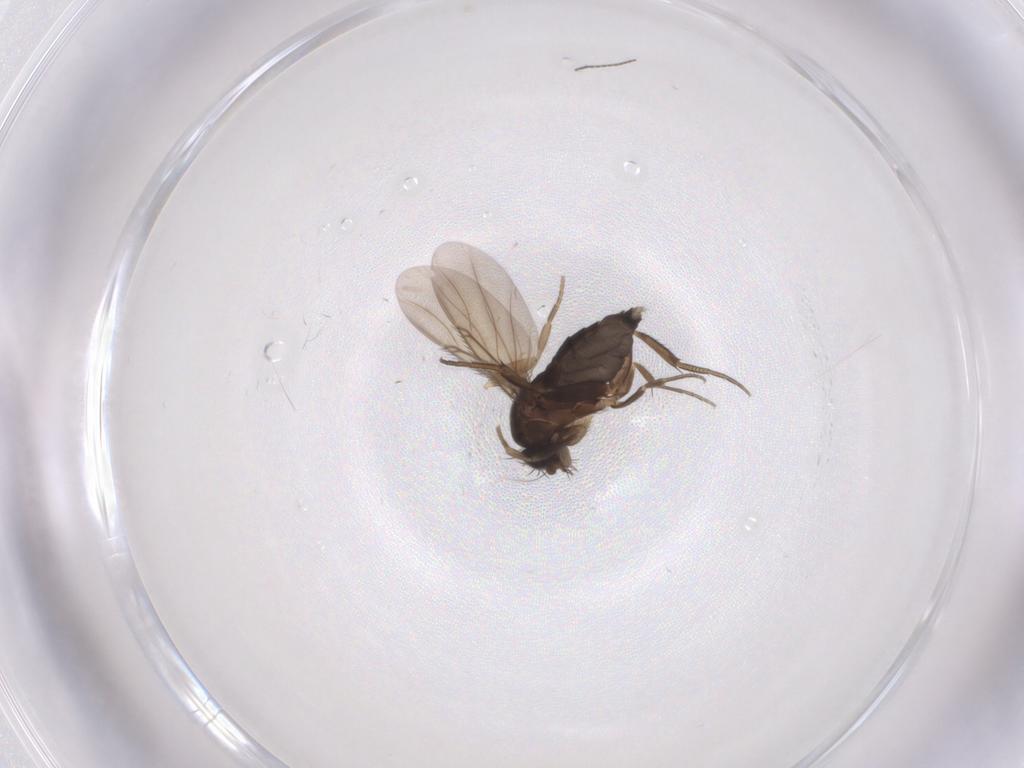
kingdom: Animalia
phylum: Arthropoda
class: Insecta
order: Diptera
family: Phoridae
